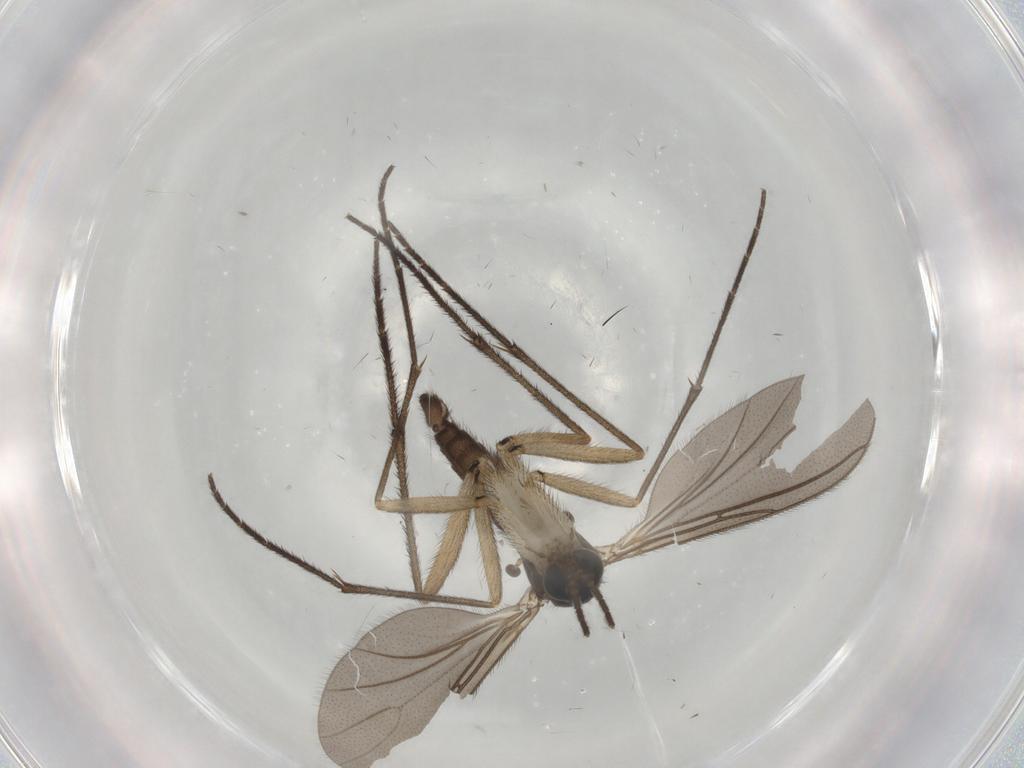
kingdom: Animalia
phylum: Arthropoda
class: Insecta
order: Diptera
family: Sciaridae
